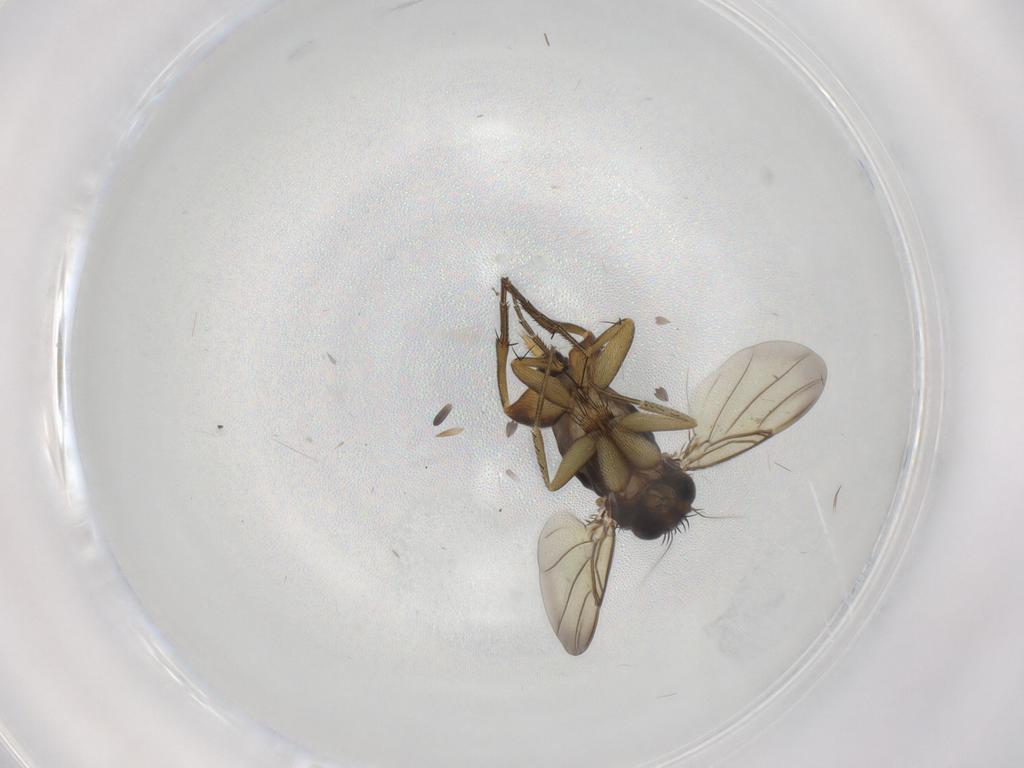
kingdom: Animalia
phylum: Arthropoda
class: Insecta
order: Diptera
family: Phoridae
